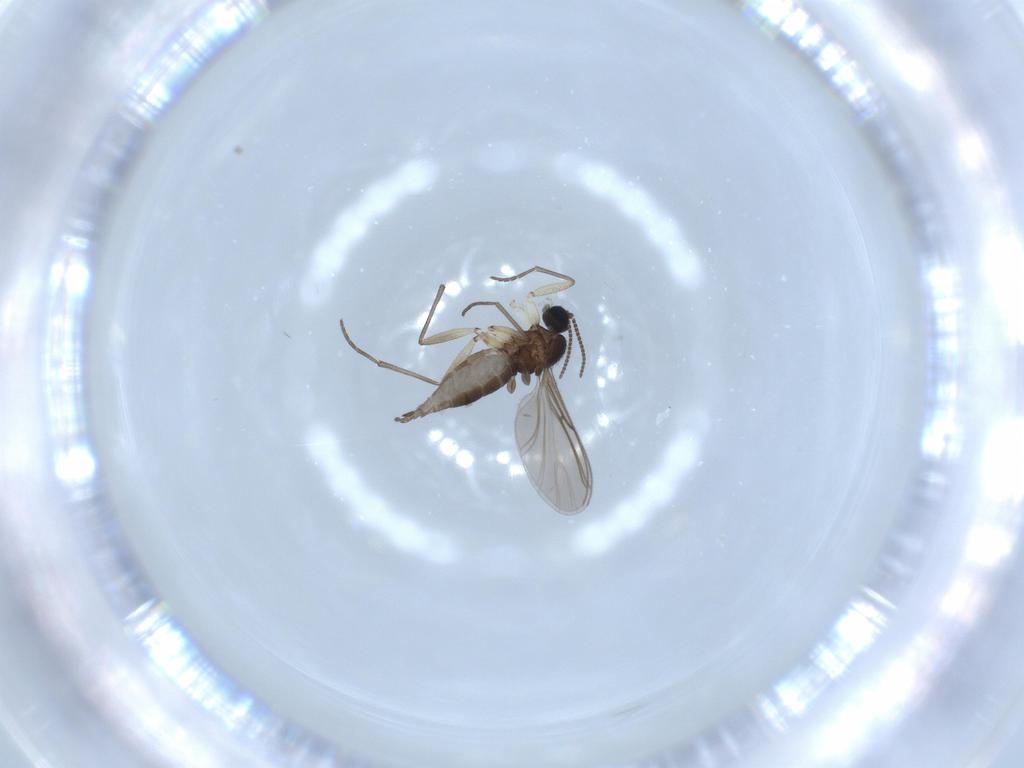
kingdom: Animalia
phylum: Arthropoda
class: Insecta
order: Diptera
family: Sciaridae
